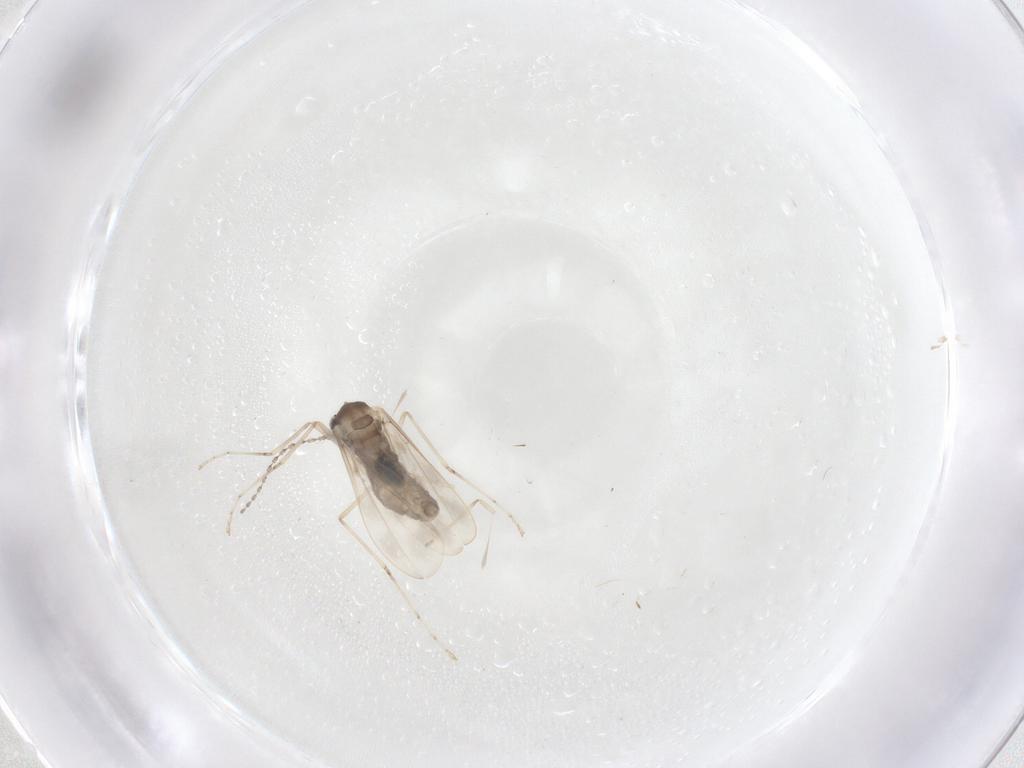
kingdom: Animalia
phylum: Arthropoda
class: Insecta
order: Diptera
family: Cecidomyiidae
